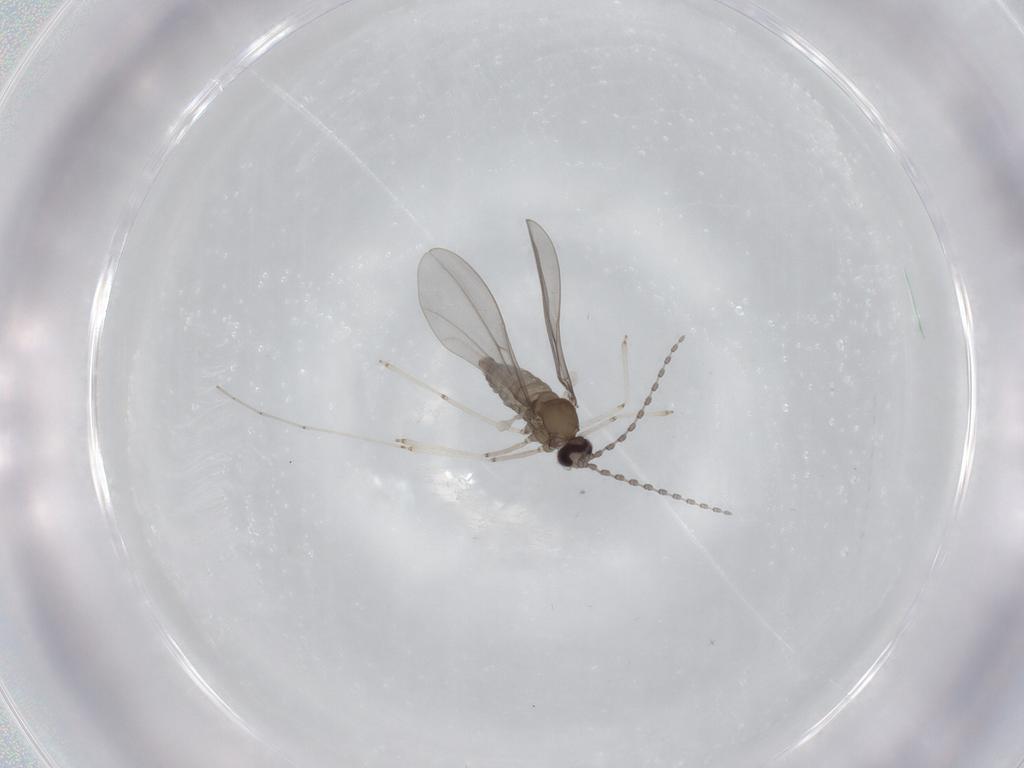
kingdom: Animalia
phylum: Arthropoda
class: Insecta
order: Diptera
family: Cecidomyiidae
